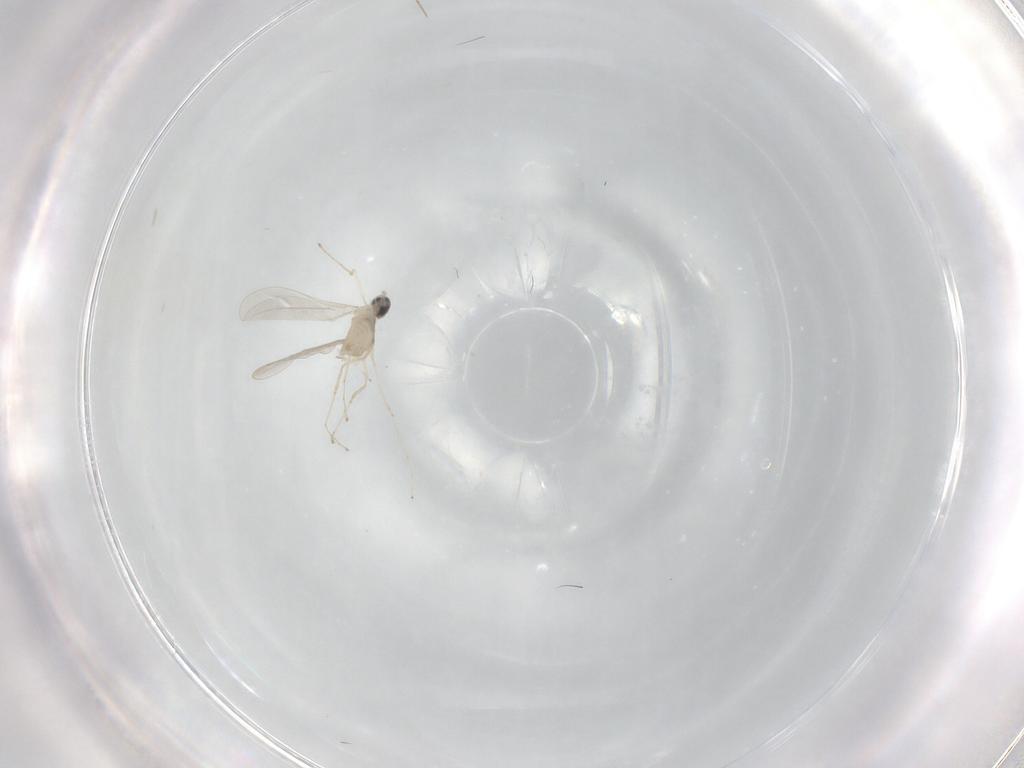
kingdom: Animalia
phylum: Arthropoda
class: Insecta
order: Diptera
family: Cecidomyiidae
